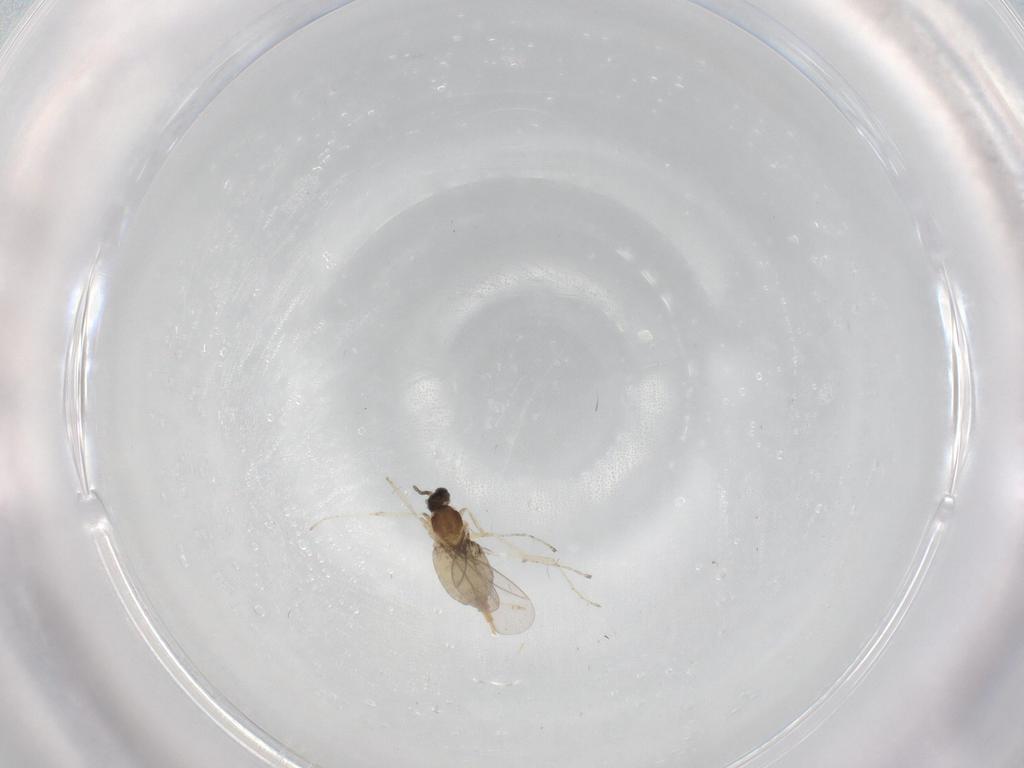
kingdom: Animalia
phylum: Arthropoda
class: Insecta
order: Diptera
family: Cecidomyiidae
